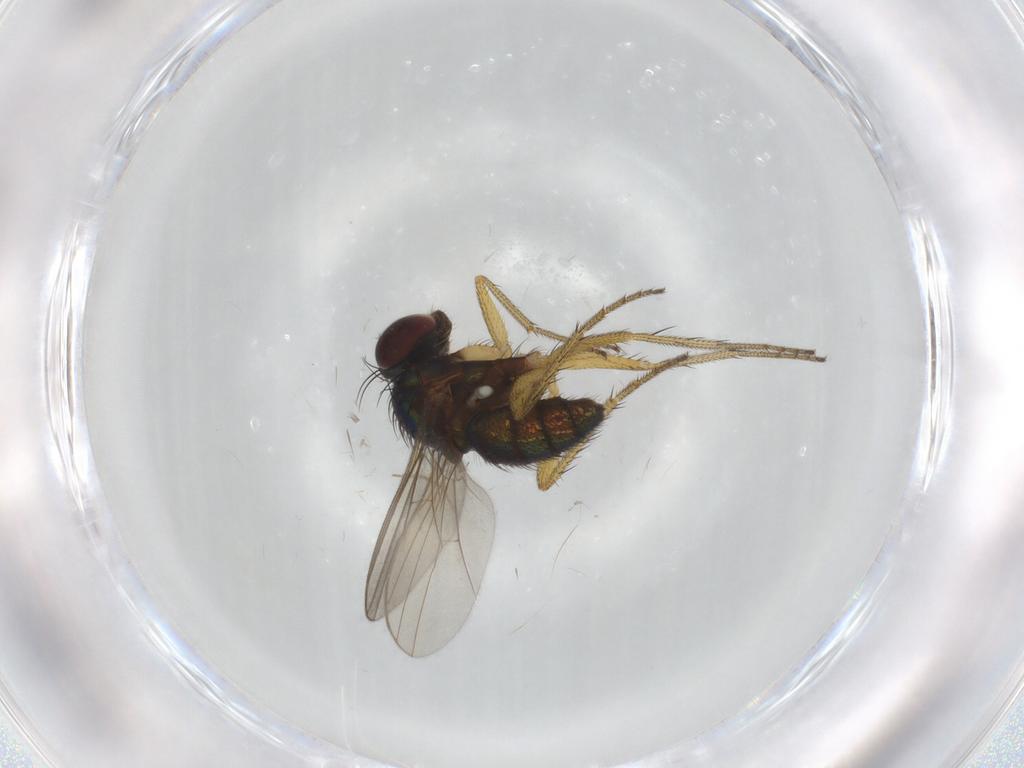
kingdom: Animalia
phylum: Arthropoda
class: Insecta
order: Diptera
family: Dolichopodidae
